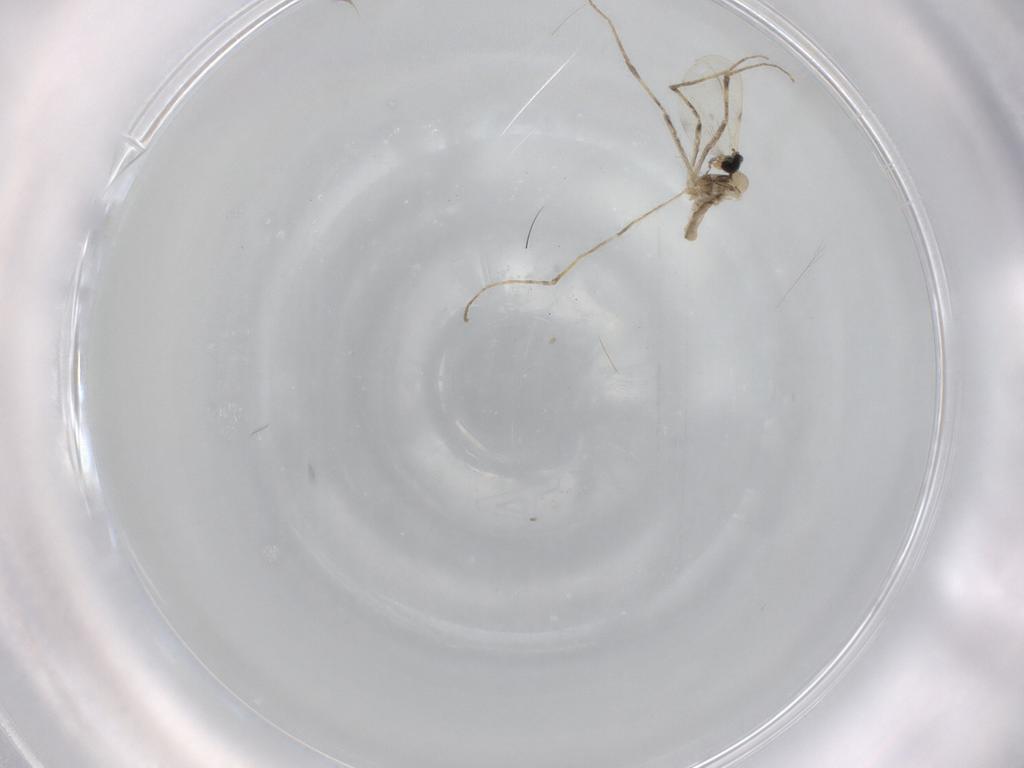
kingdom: Animalia
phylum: Arthropoda
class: Insecta
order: Diptera
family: Cecidomyiidae
